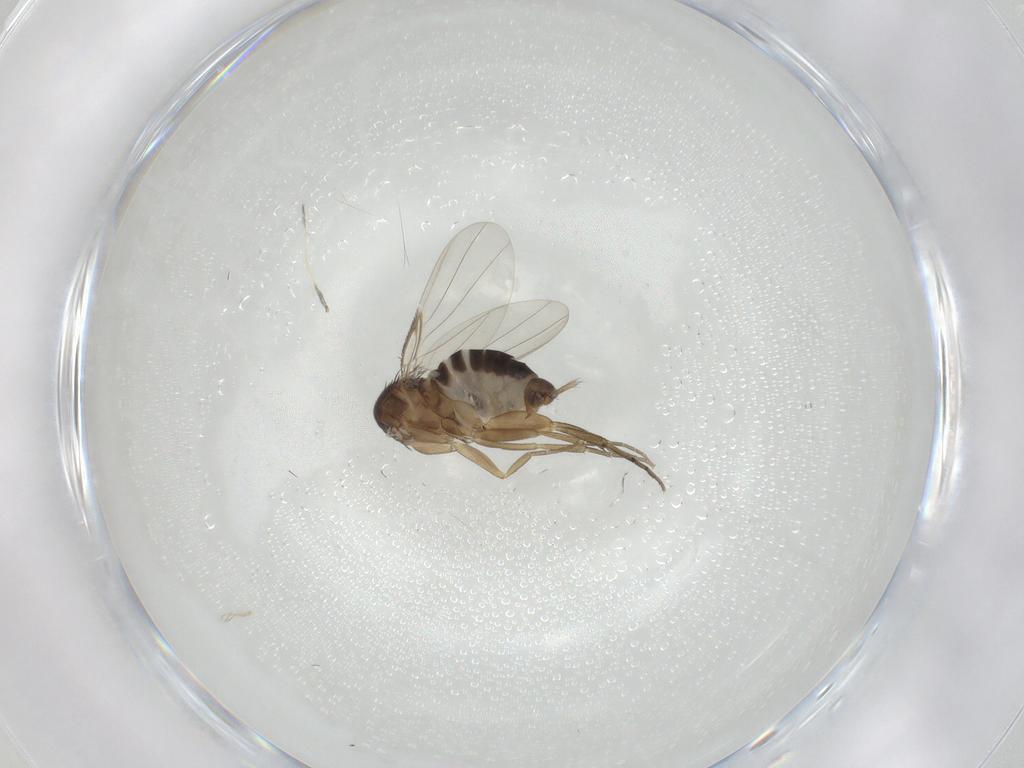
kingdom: Animalia
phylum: Arthropoda
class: Insecta
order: Diptera
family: Phoridae
